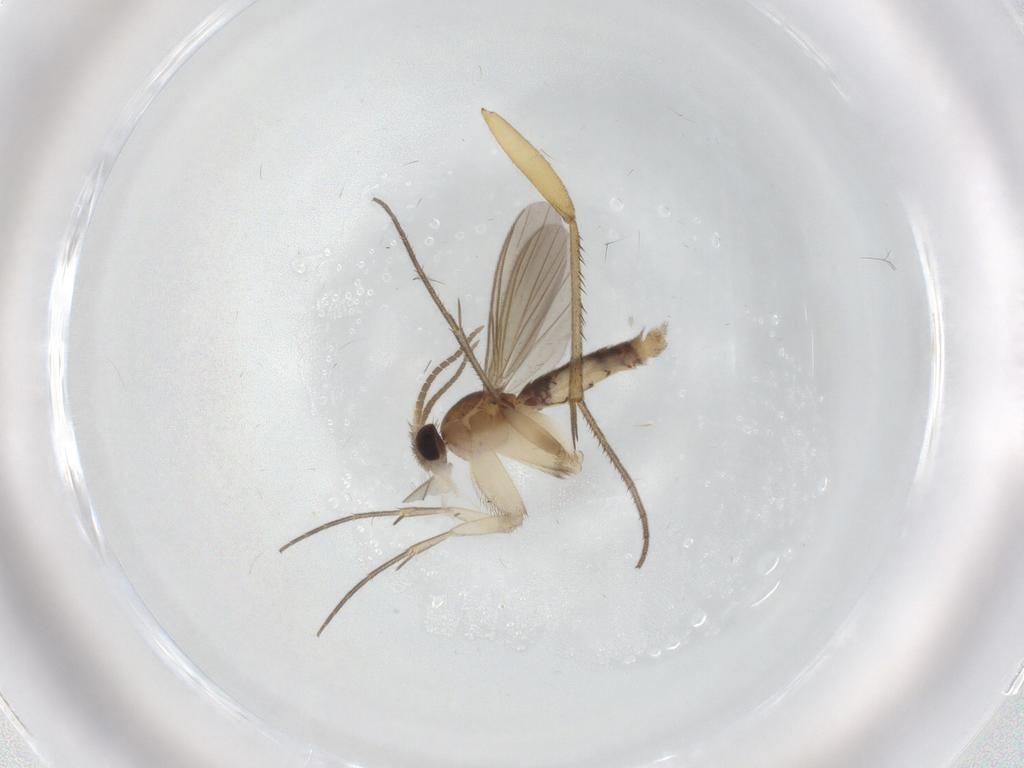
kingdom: Animalia
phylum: Arthropoda
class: Insecta
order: Diptera
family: Mycetophilidae
